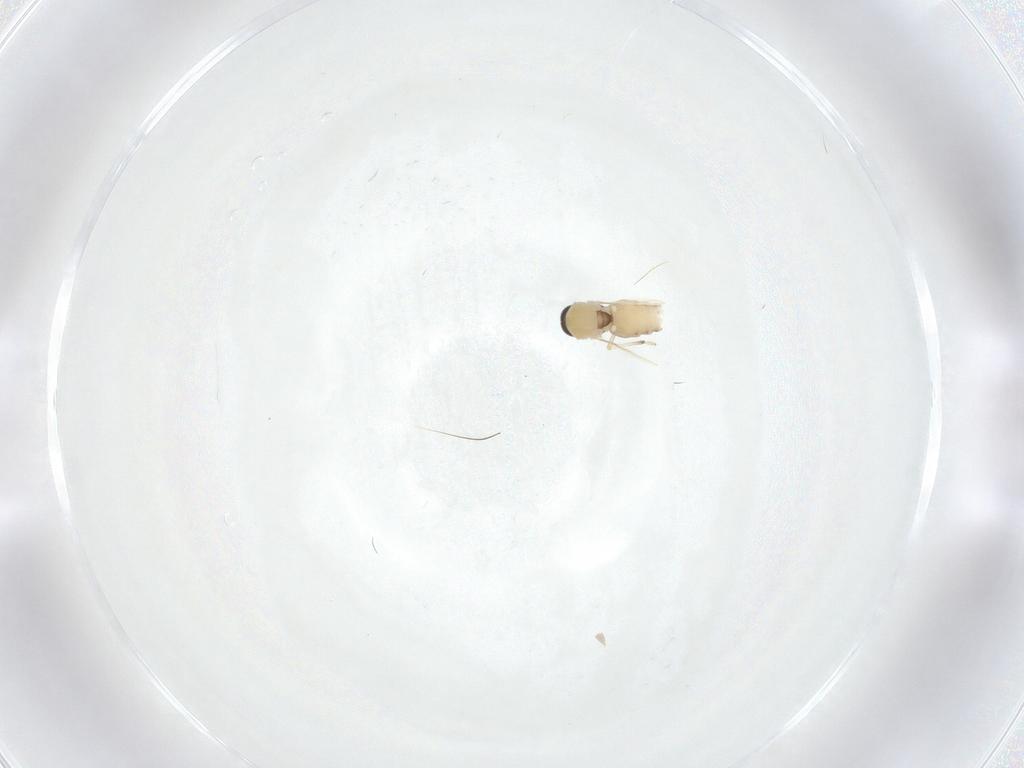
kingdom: Animalia
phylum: Arthropoda
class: Insecta
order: Diptera
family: Ceratopogonidae
